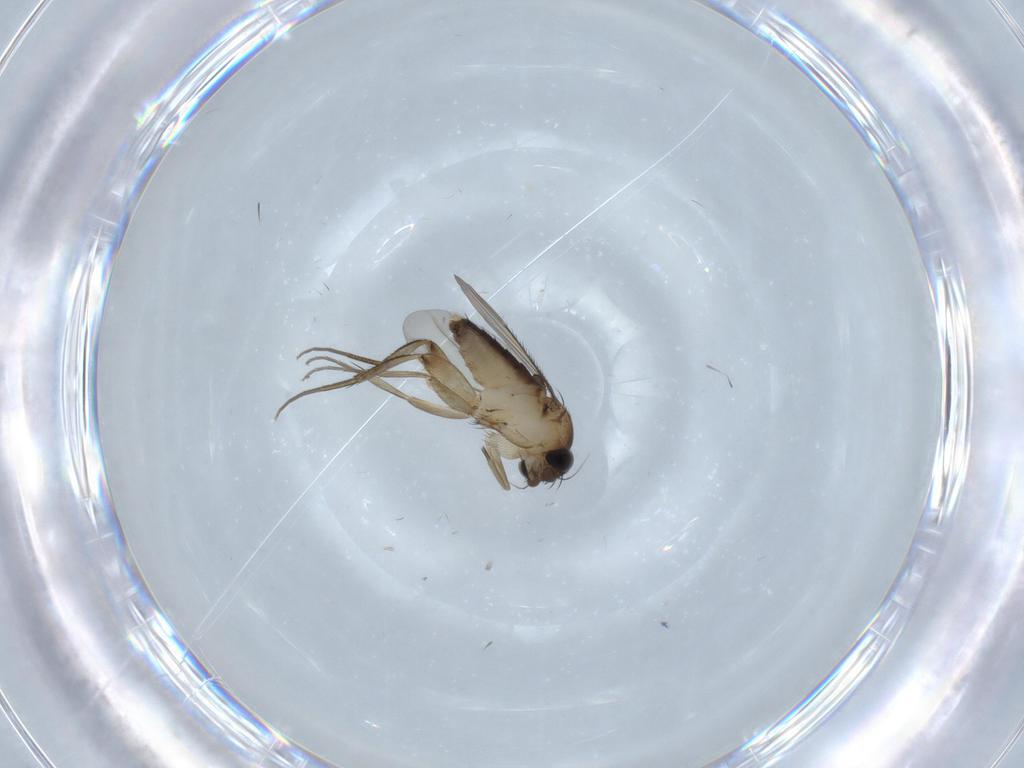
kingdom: Animalia
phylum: Arthropoda
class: Insecta
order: Diptera
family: Phoridae
